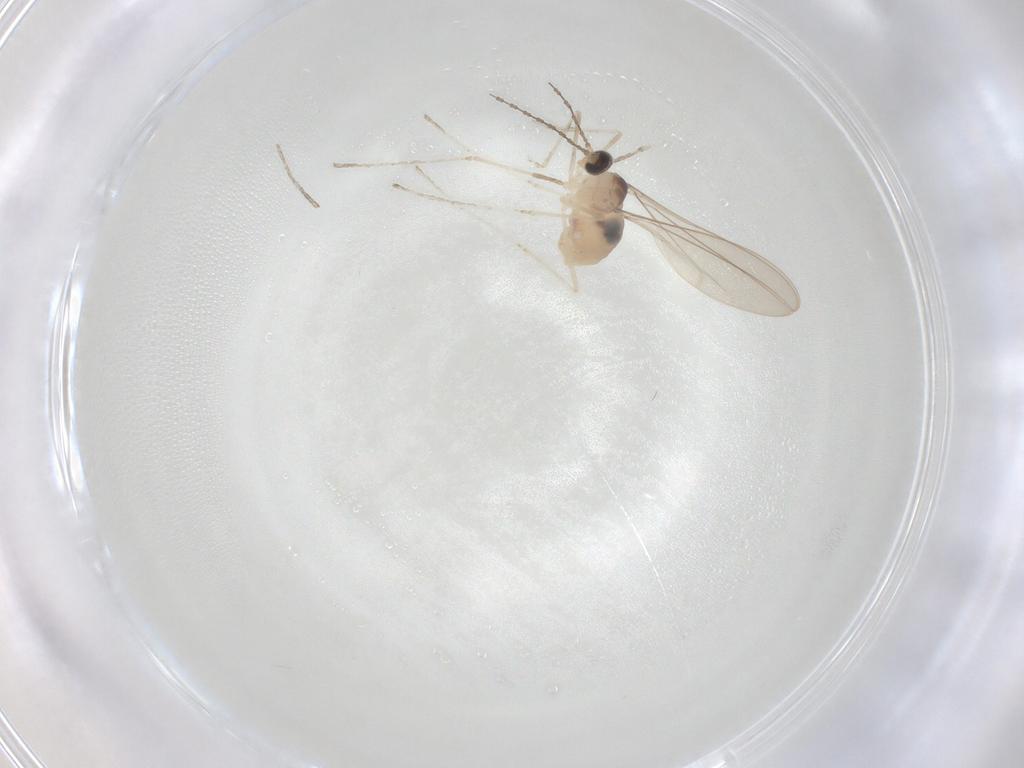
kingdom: Animalia
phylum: Arthropoda
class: Insecta
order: Diptera
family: Cecidomyiidae
